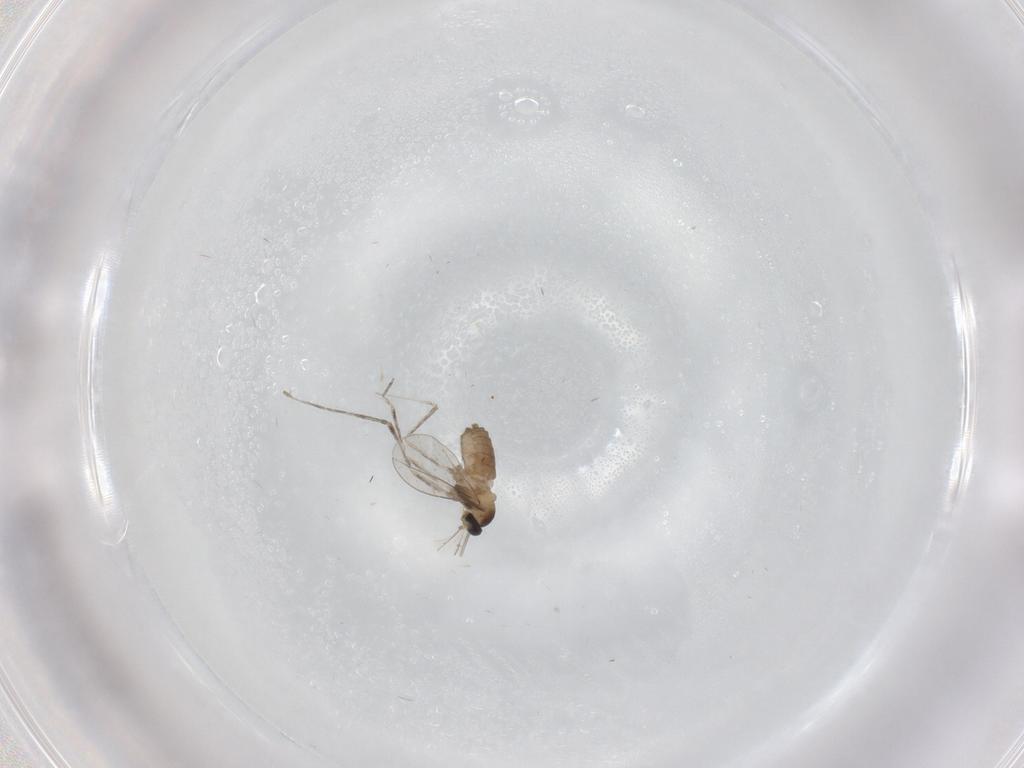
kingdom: Animalia
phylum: Arthropoda
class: Insecta
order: Diptera
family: Cecidomyiidae
